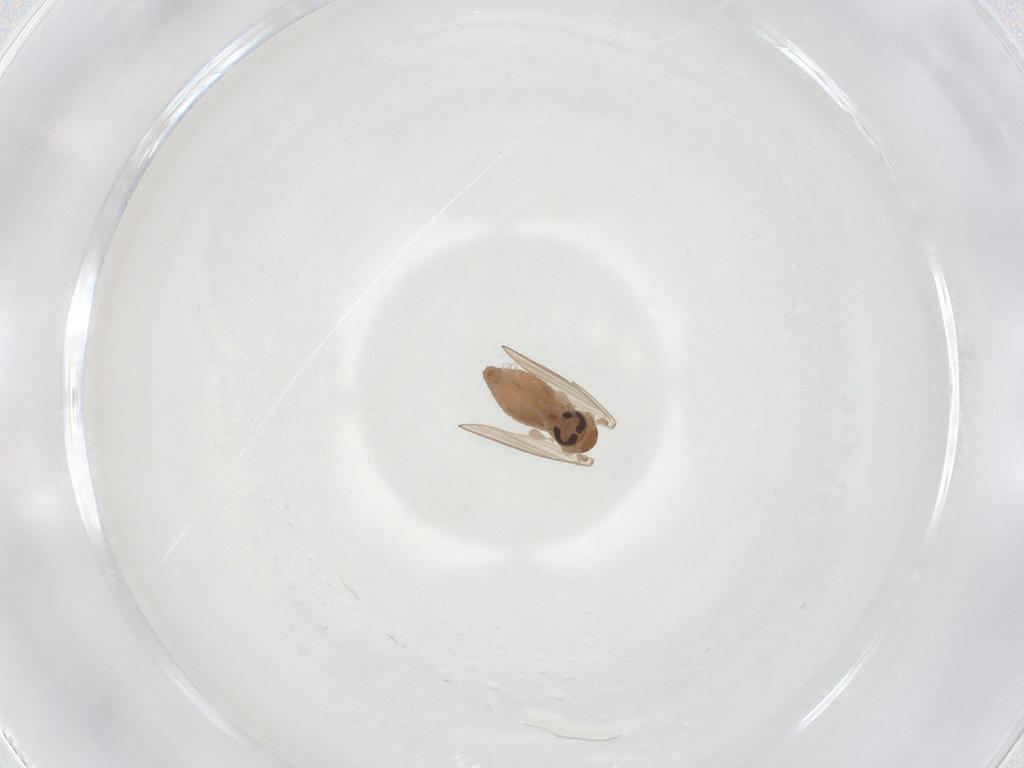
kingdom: Animalia
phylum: Arthropoda
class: Insecta
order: Diptera
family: Psychodidae
